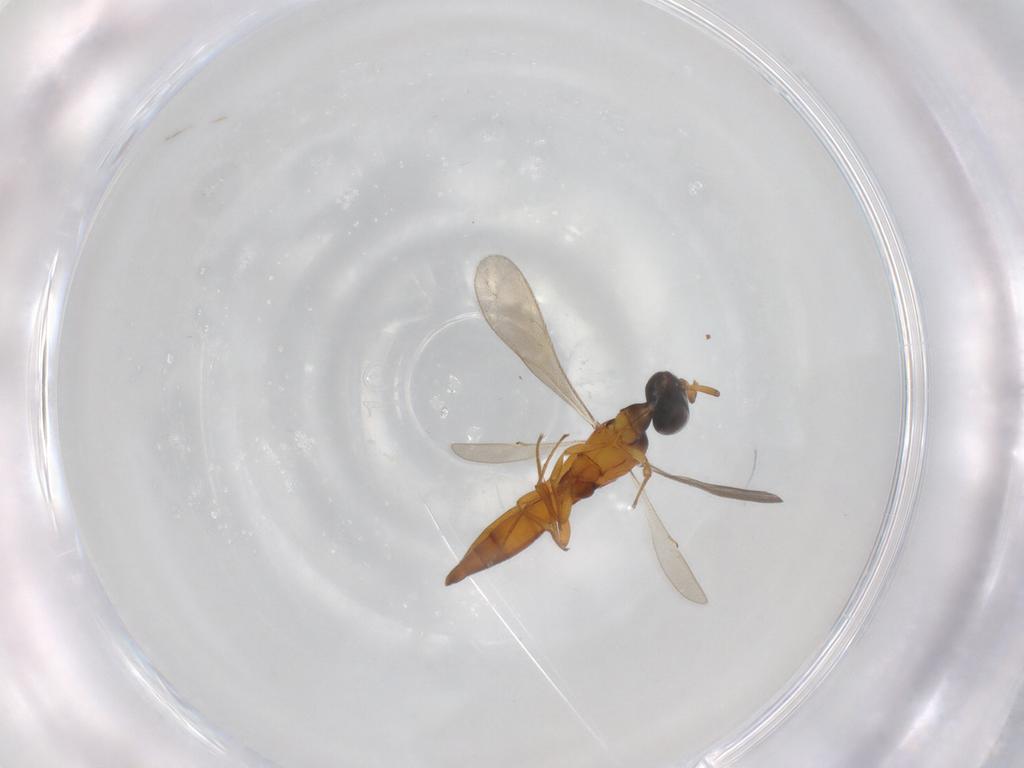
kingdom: Animalia
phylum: Arthropoda
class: Insecta
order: Hymenoptera
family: Scelionidae
